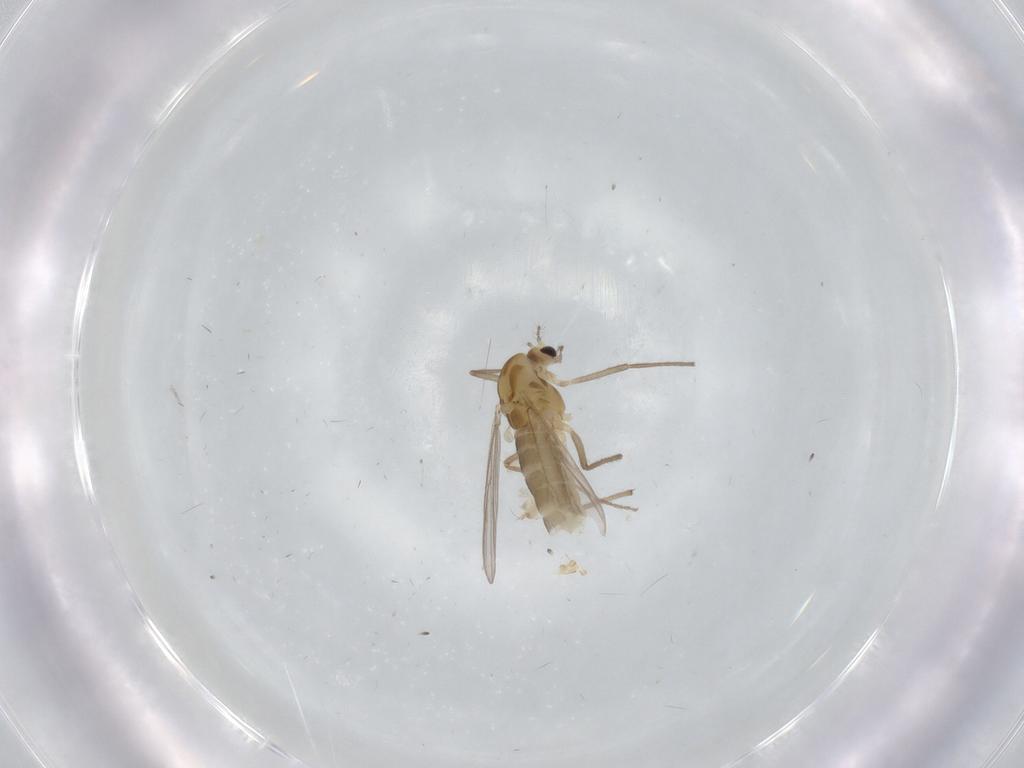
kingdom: Animalia
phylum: Arthropoda
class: Insecta
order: Diptera
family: Chironomidae
